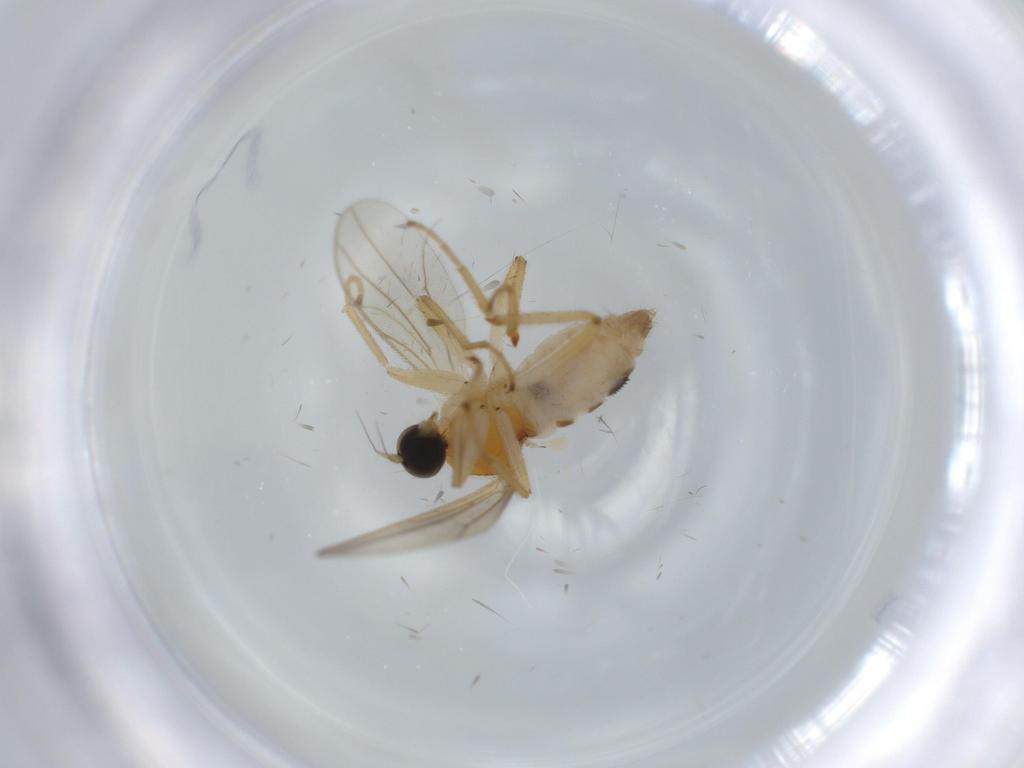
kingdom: Animalia
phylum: Arthropoda
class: Insecta
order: Diptera
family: Hybotidae
